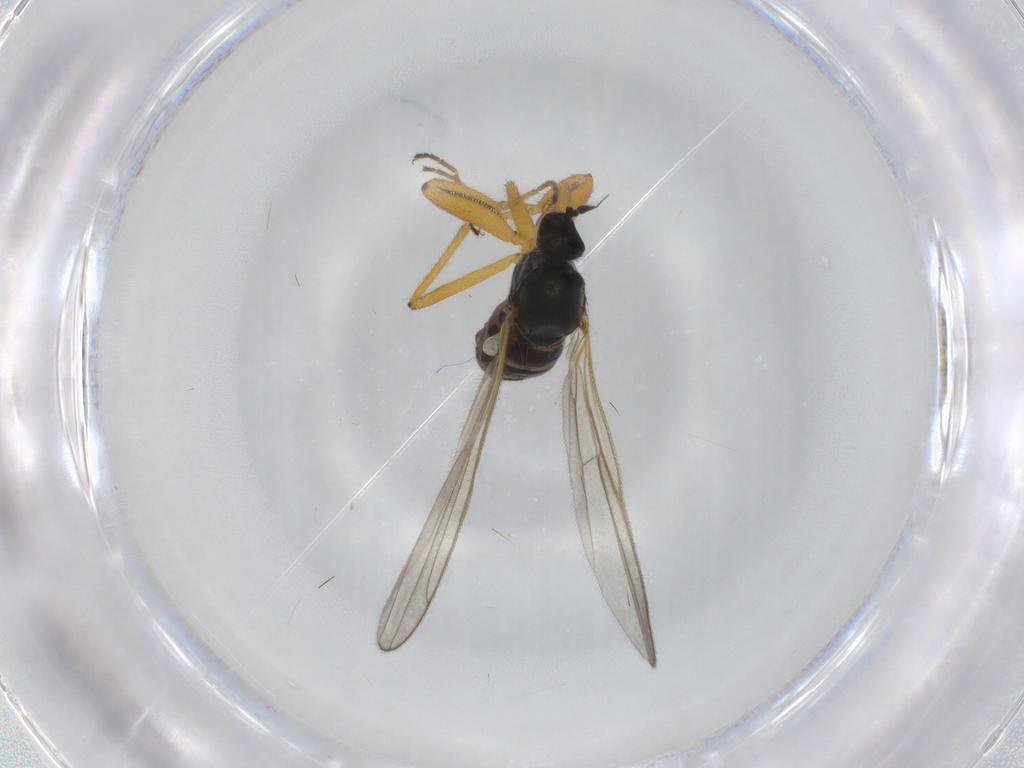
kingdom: Animalia
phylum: Arthropoda
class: Insecta
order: Diptera
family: Hybotidae
